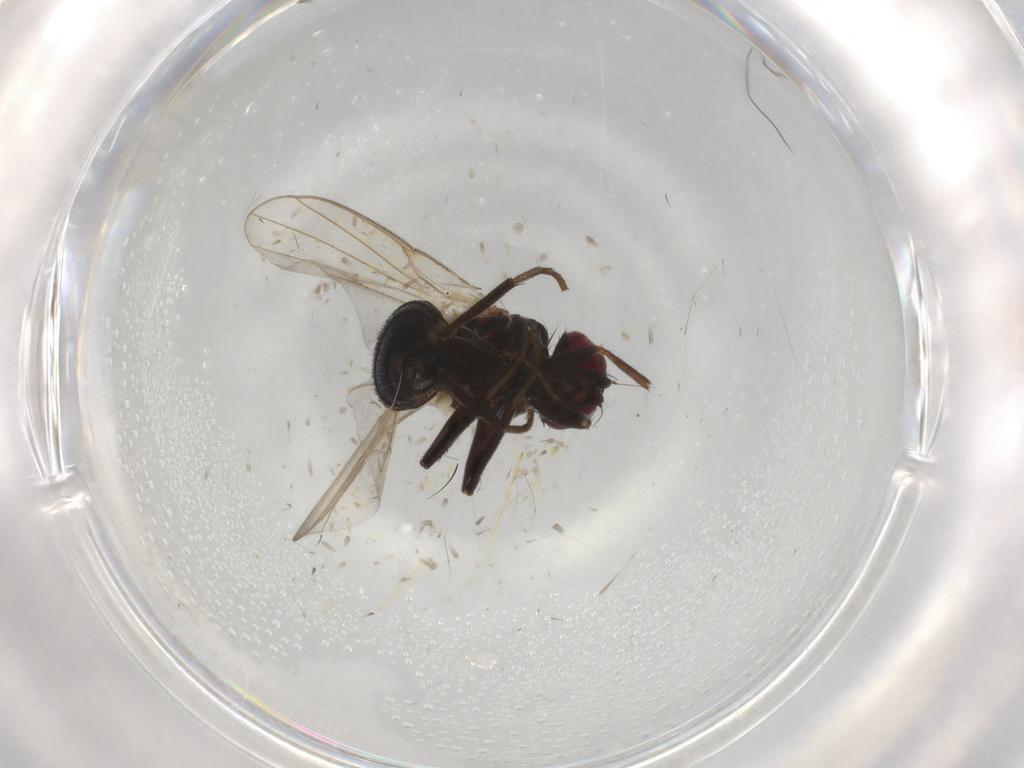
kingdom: Animalia
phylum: Arthropoda
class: Insecta
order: Diptera
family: Agromyzidae
